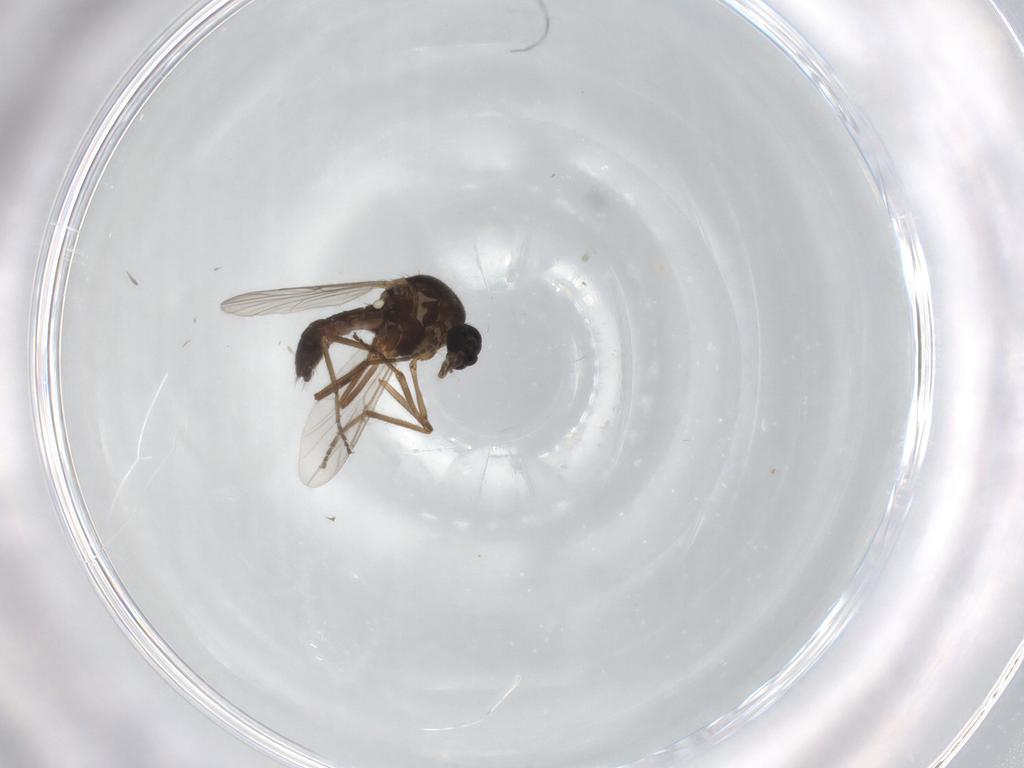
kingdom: Animalia
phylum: Arthropoda
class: Insecta
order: Diptera
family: Ceratopogonidae
